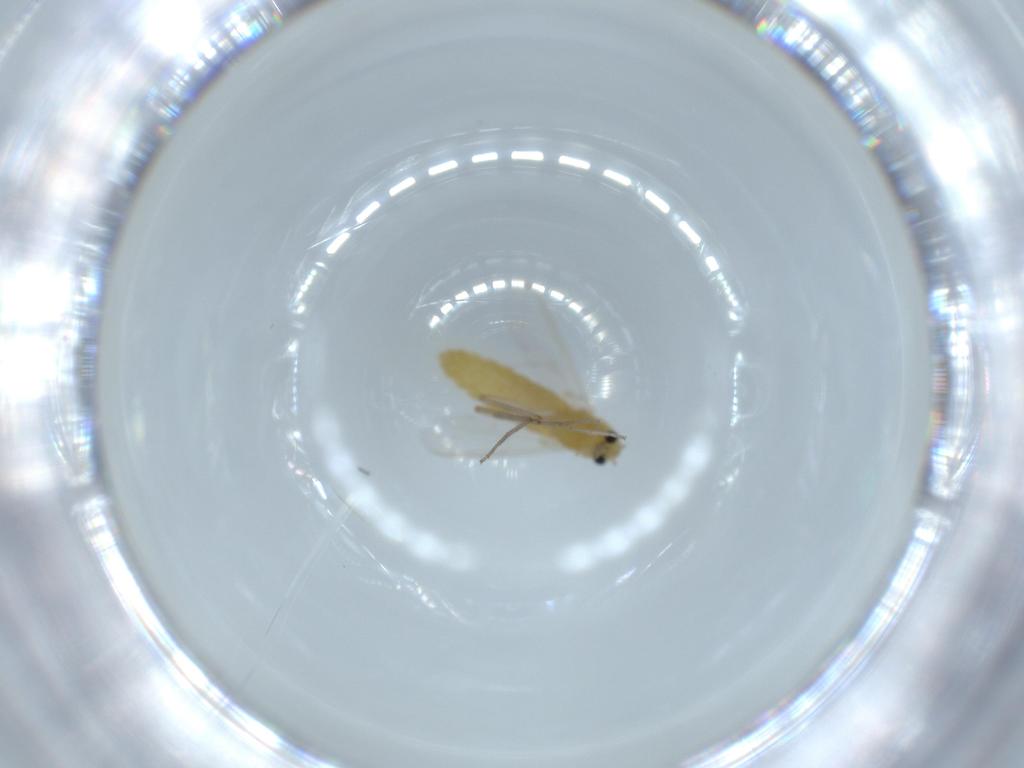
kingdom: Animalia
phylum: Arthropoda
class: Insecta
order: Diptera
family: Chironomidae
